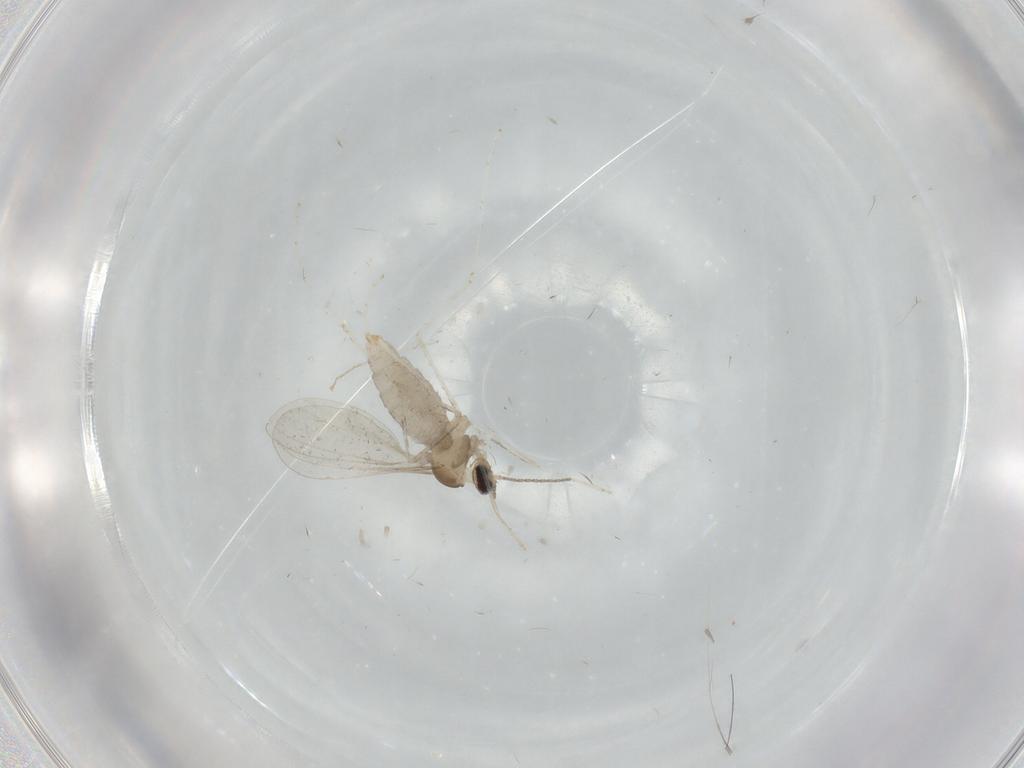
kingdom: Animalia
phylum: Arthropoda
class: Insecta
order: Diptera
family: Cecidomyiidae
